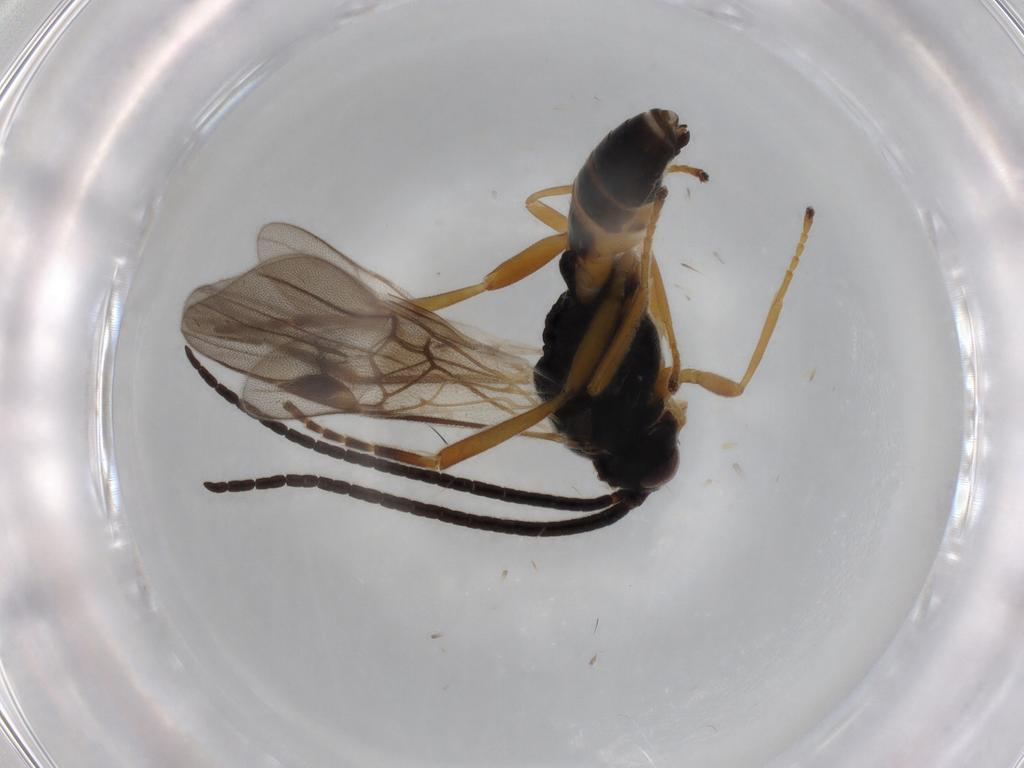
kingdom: Animalia
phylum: Arthropoda
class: Insecta
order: Hymenoptera
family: Braconidae
